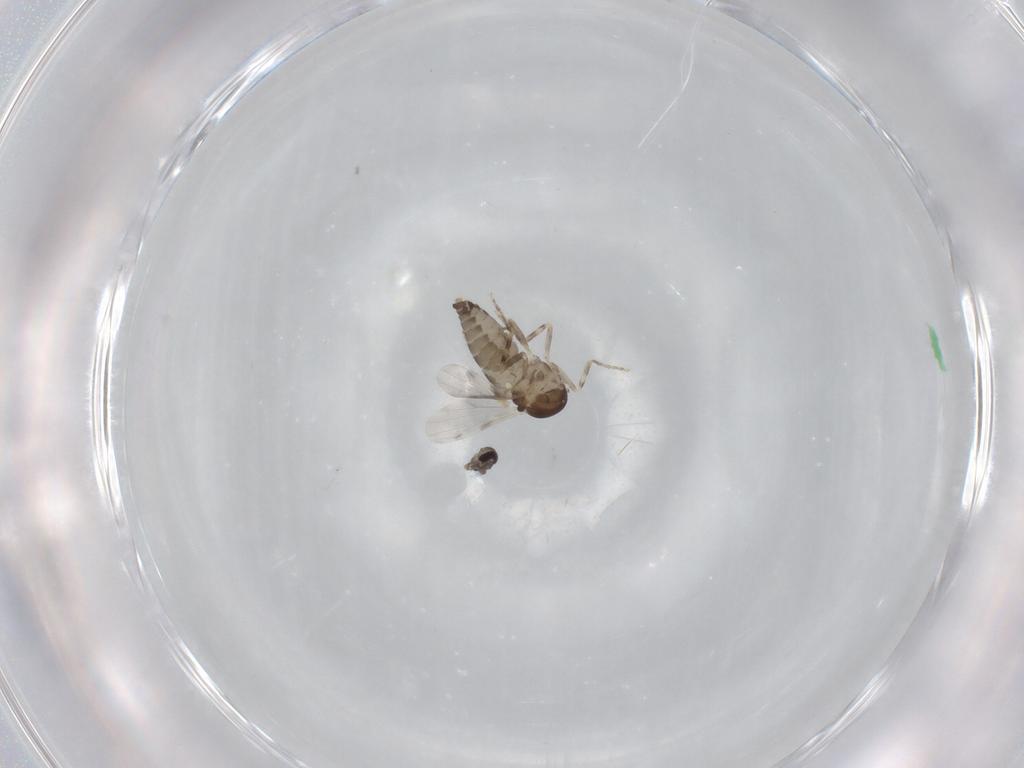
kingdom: Animalia
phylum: Arthropoda
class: Insecta
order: Diptera
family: Ceratopogonidae
